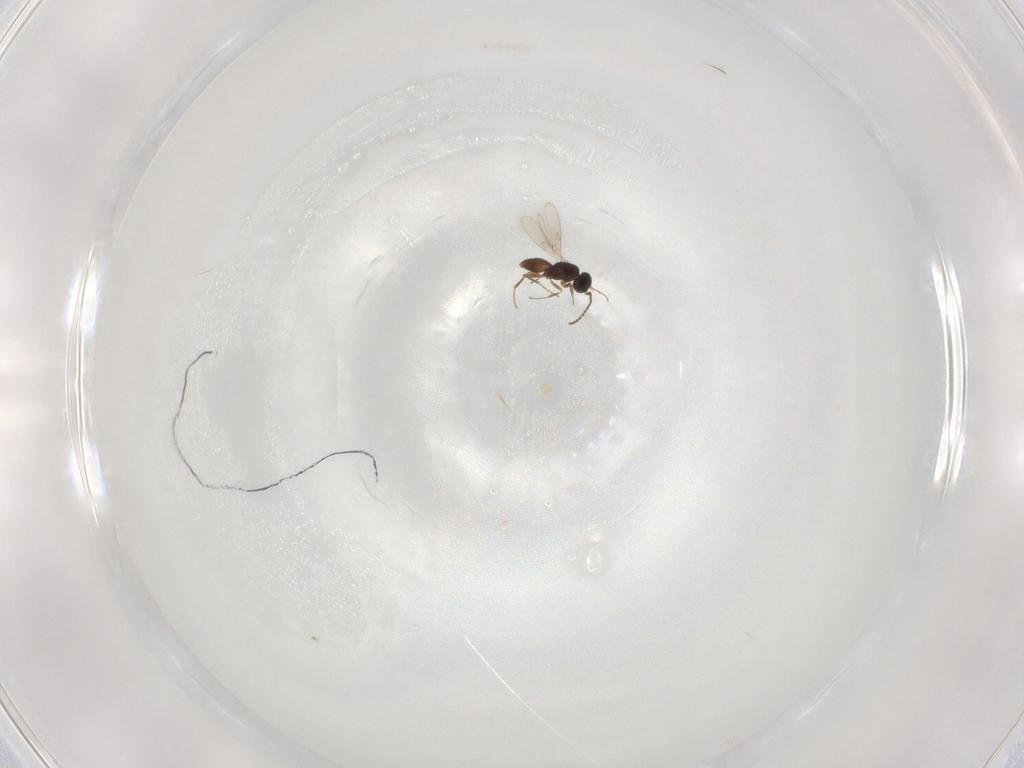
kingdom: Animalia
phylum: Arthropoda
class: Insecta
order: Hymenoptera
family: Scelionidae
